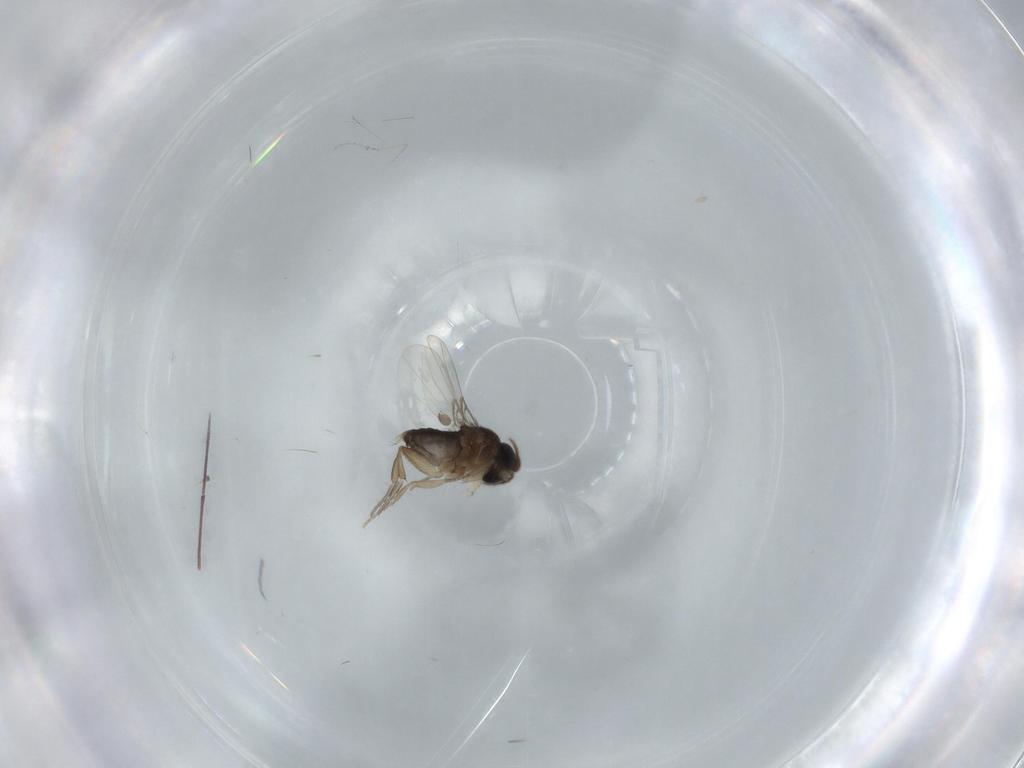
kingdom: Animalia
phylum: Arthropoda
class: Insecta
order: Diptera
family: Phoridae
